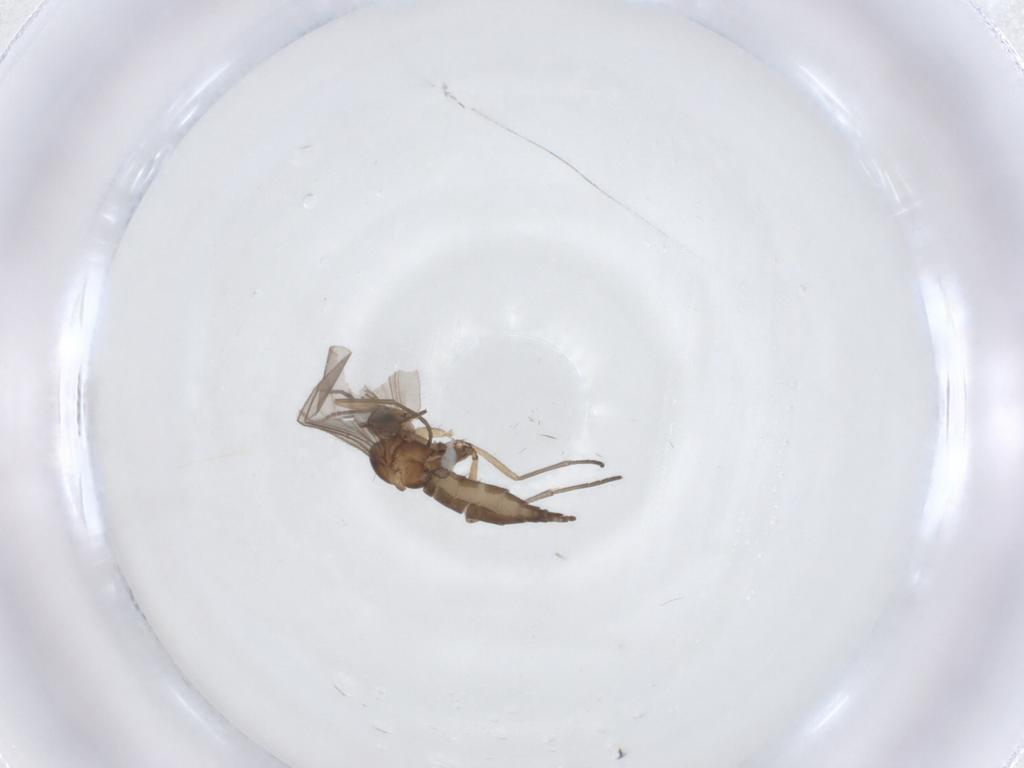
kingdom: Animalia
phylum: Arthropoda
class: Insecta
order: Diptera
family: Sciaridae
